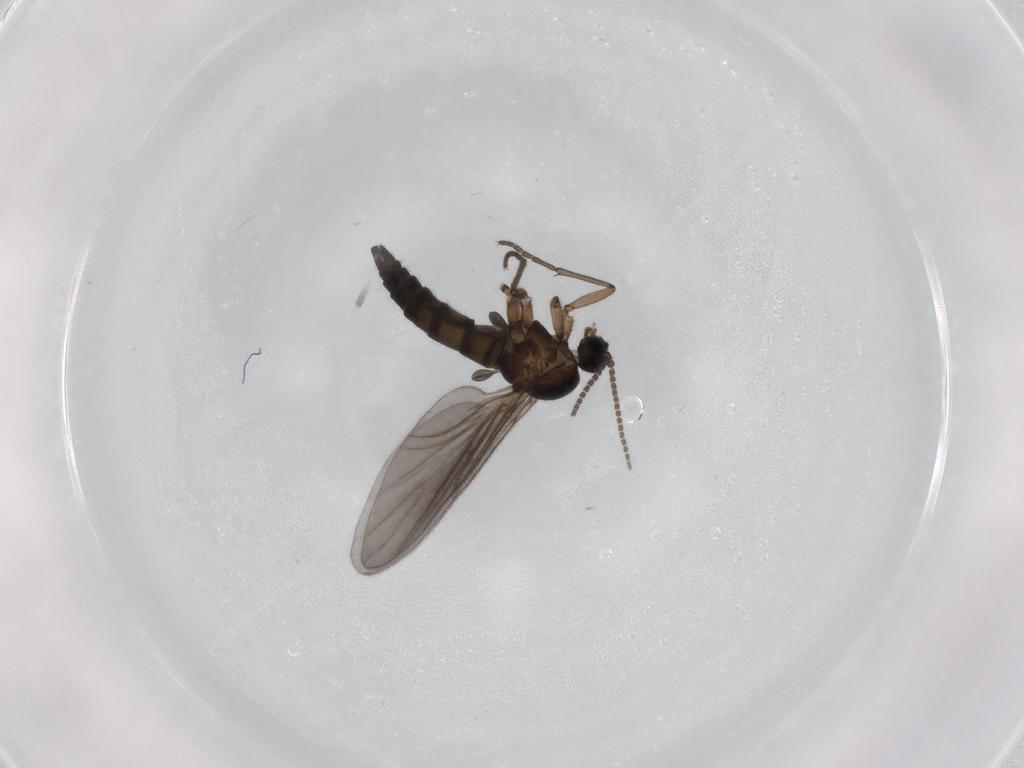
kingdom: Animalia
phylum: Arthropoda
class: Insecta
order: Diptera
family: Sciaridae
